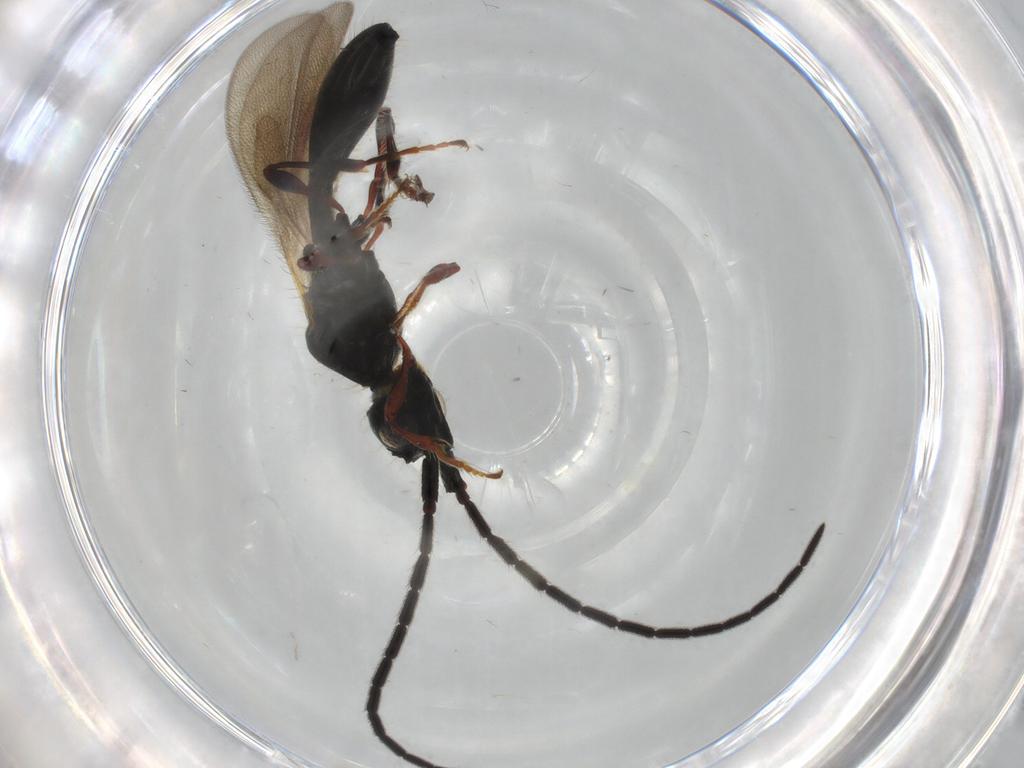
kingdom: Animalia
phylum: Arthropoda
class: Insecta
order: Hymenoptera
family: Diapriidae
